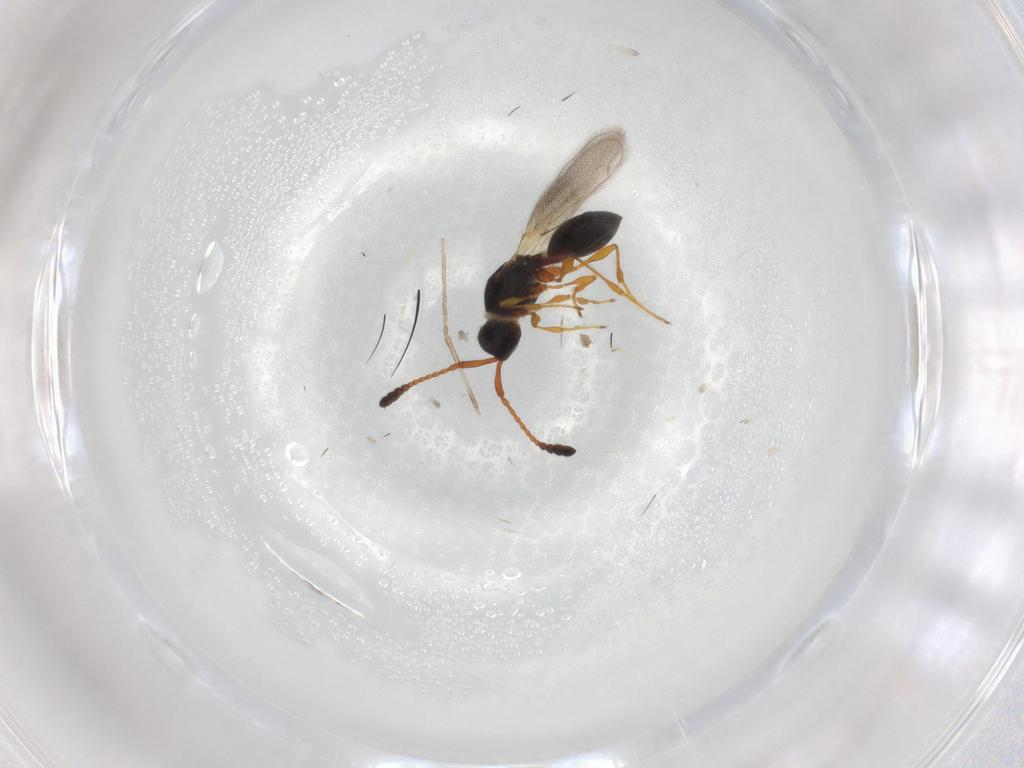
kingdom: Animalia
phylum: Arthropoda
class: Insecta
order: Hymenoptera
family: Diapriidae
